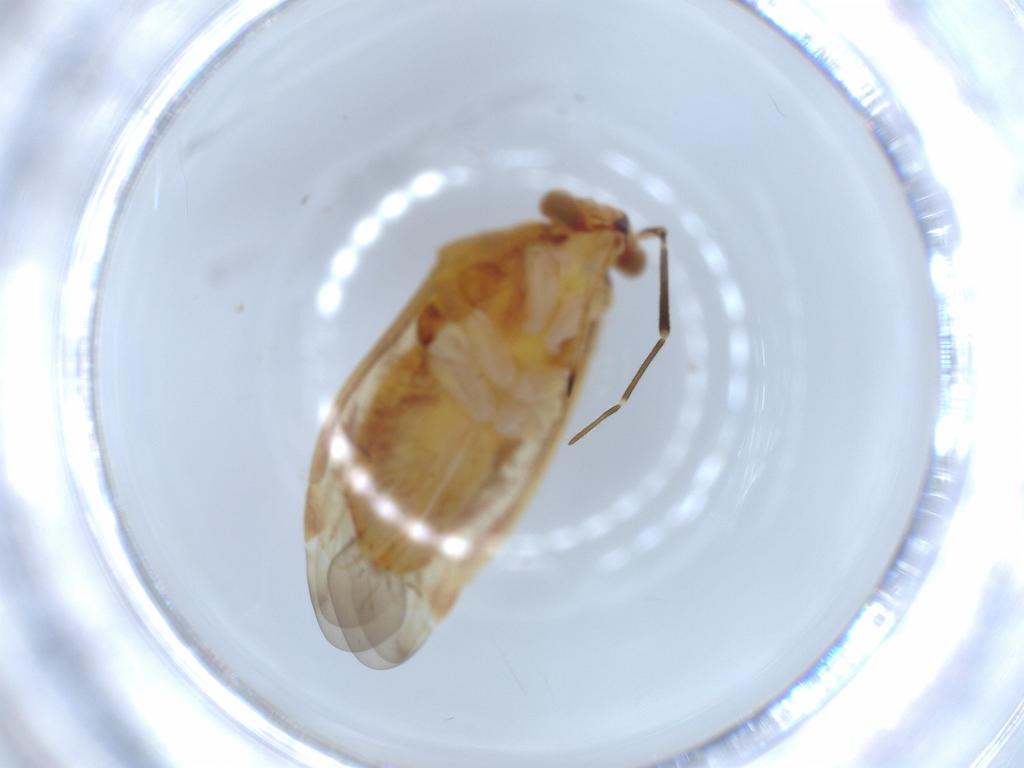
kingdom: Animalia
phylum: Arthropoda
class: Insecta
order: Hemiptera
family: Miridae
